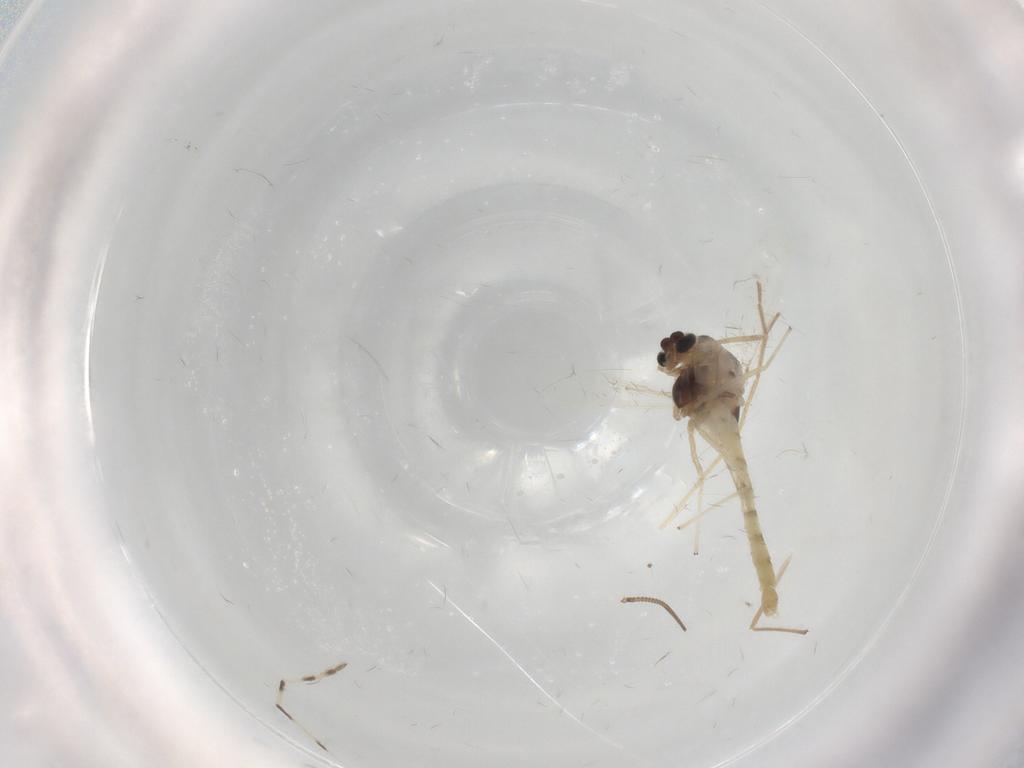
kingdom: Animalia
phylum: Arthropoda
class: Insecta
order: Diptera
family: Chironomidae
